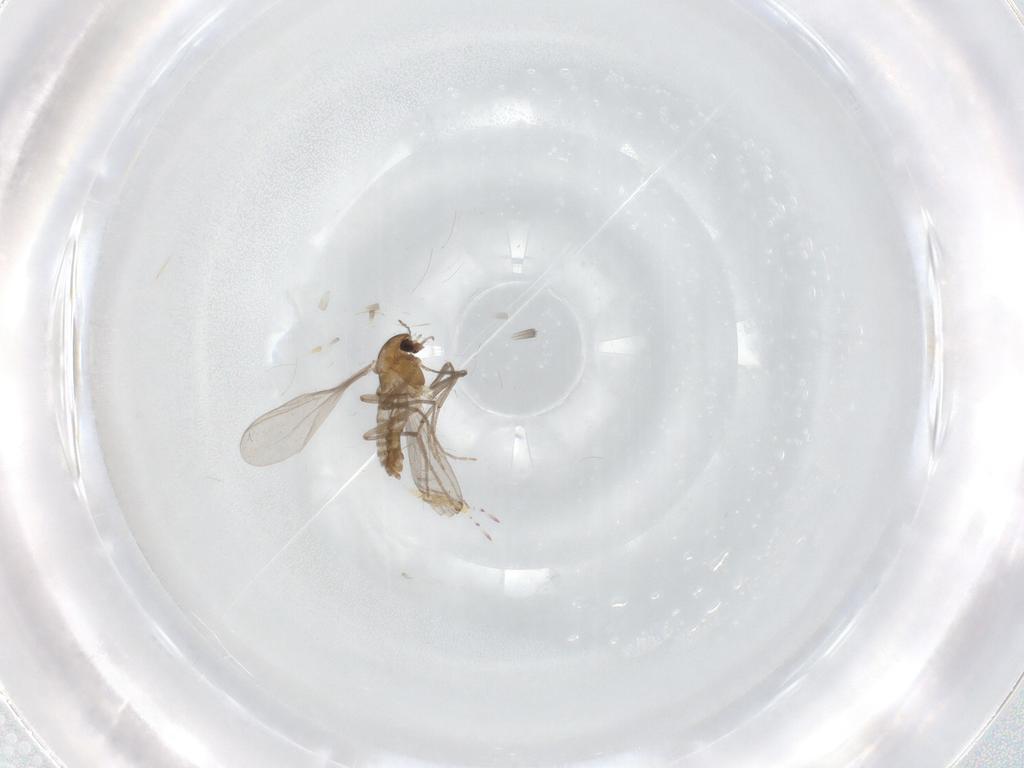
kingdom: Animalia
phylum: Arthropoda
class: Insecta
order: Diptera
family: Chironomidae
